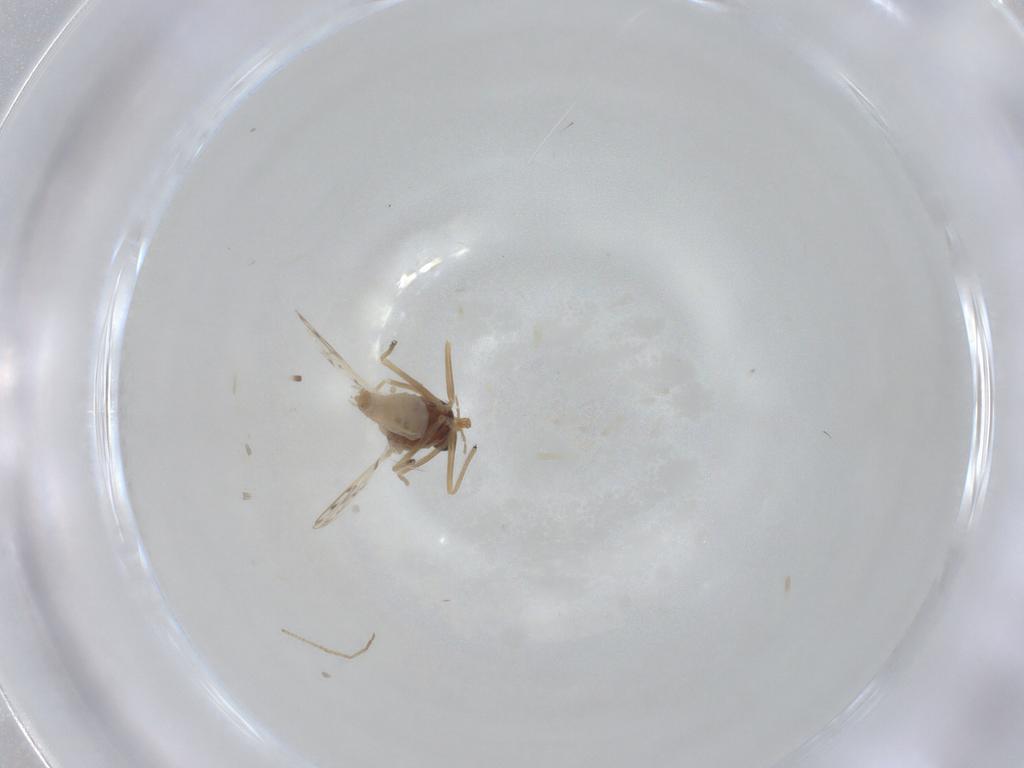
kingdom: Animalia
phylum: Arthropoda
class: Insecta
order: Diptera
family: Chironomidae
